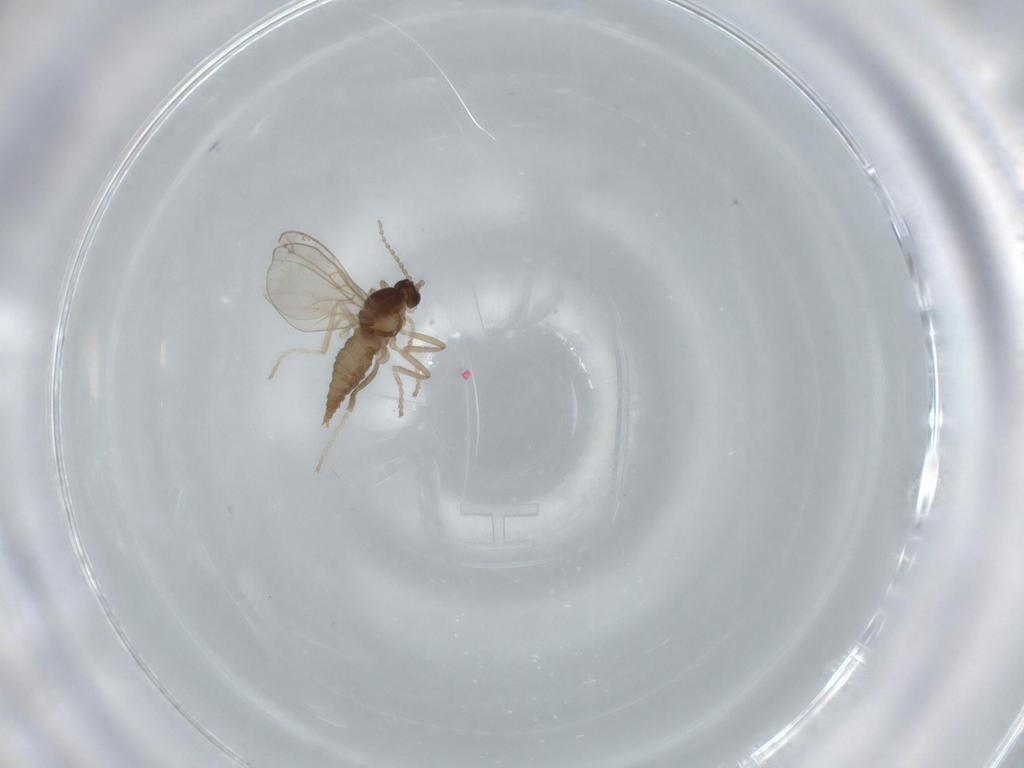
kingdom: Animalia
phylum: Arthropoda
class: Insecta
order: Diptera
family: Cecidomyiidae
